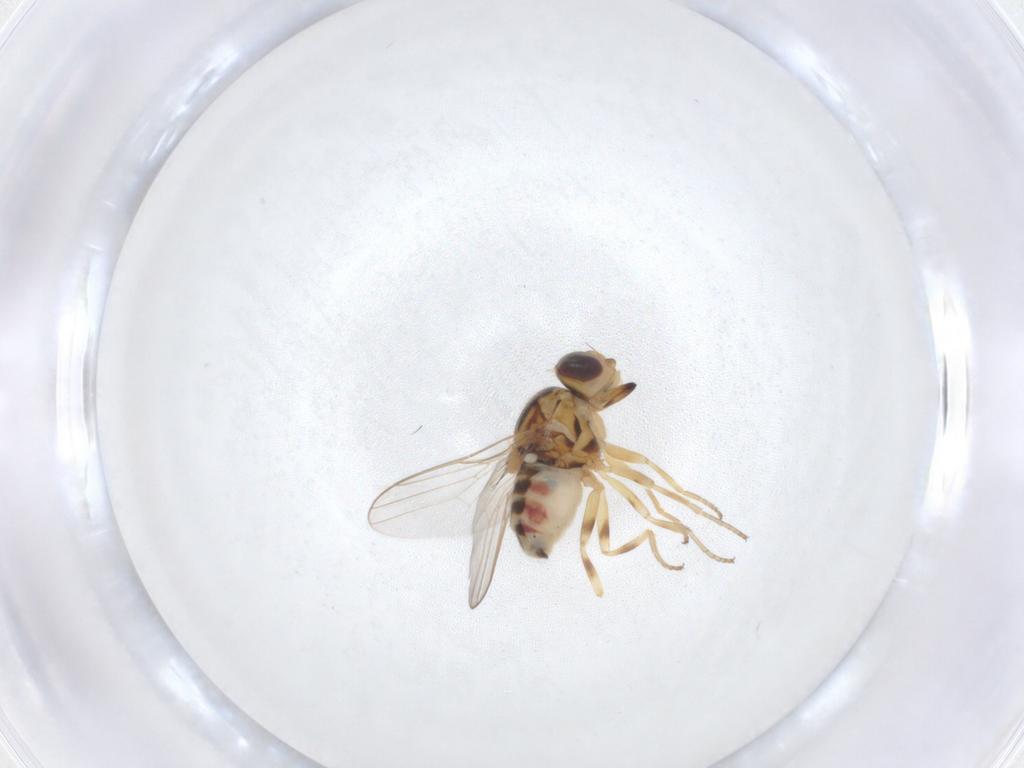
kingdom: Animalia
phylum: Arthropoda
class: Insecta
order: Diptera
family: Chloropidae
